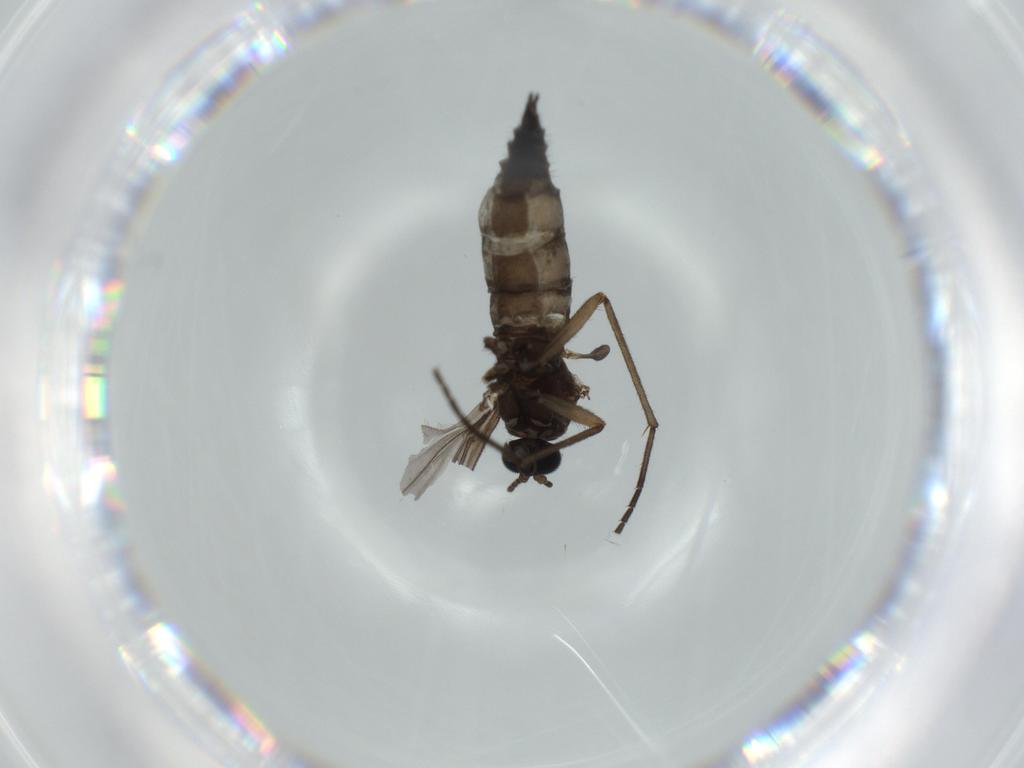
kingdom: Animalia
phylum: Arthropoda
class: Insecta
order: Diptera
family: Sciaridae
